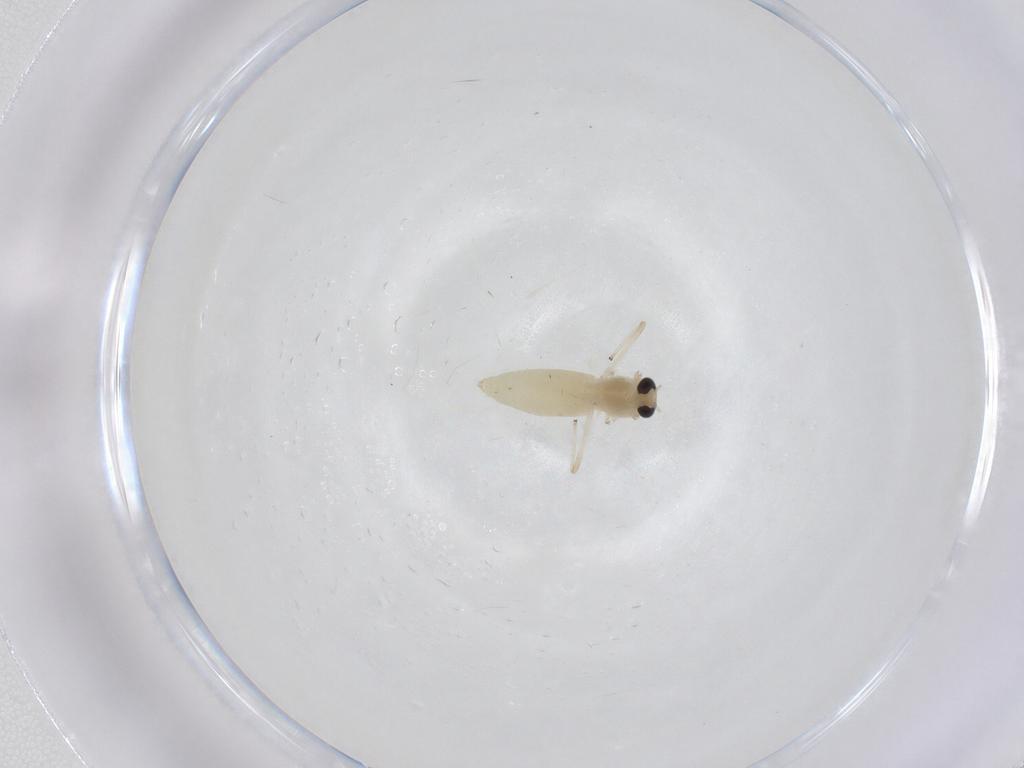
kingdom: Animalia
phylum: Arthropoda
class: Insecta
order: Diptera
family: Chironomidae
